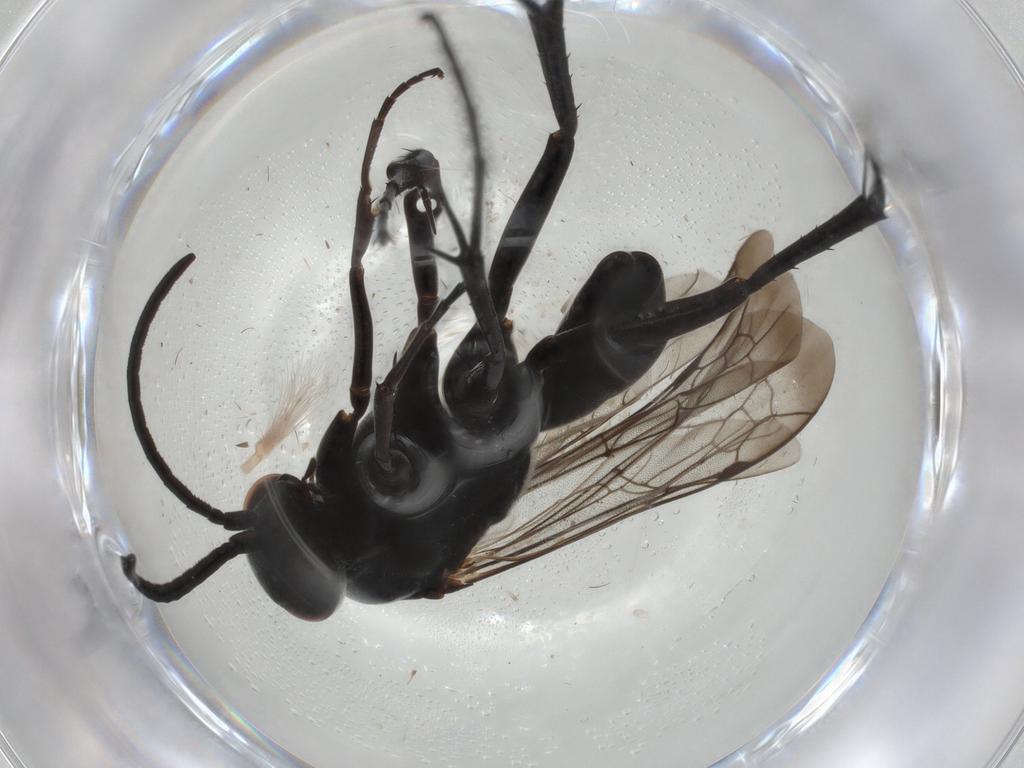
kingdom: Animalia
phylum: Arthropoda
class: Insecta
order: Hymenoptera
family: Pompilidae
